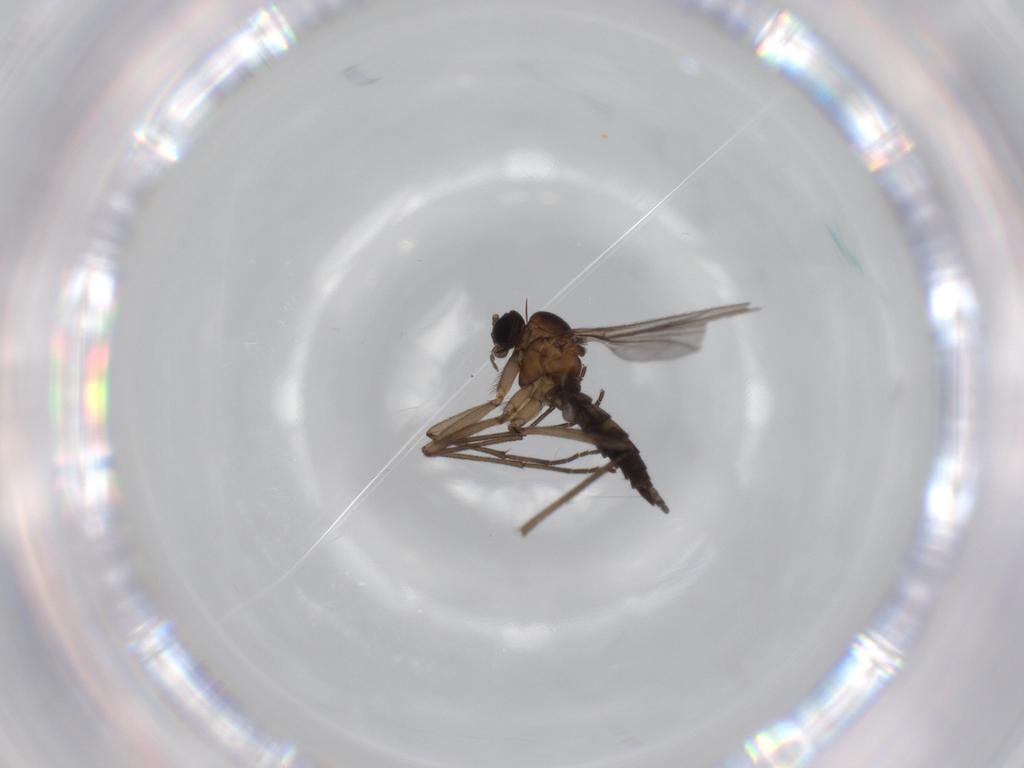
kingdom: Animalia
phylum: Arthropoda
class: Insecta
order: Diptera
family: Sciaridae
